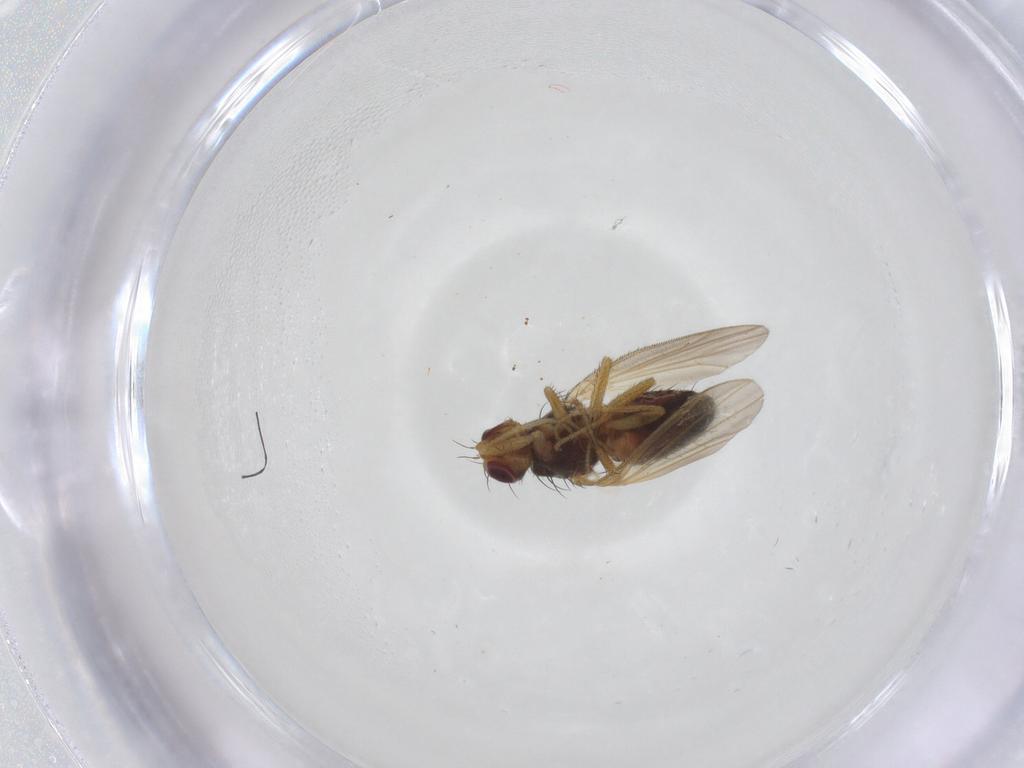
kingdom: Animalia
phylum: Arthropoda
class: Insecta
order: Diptera
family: Heleomyzidae
